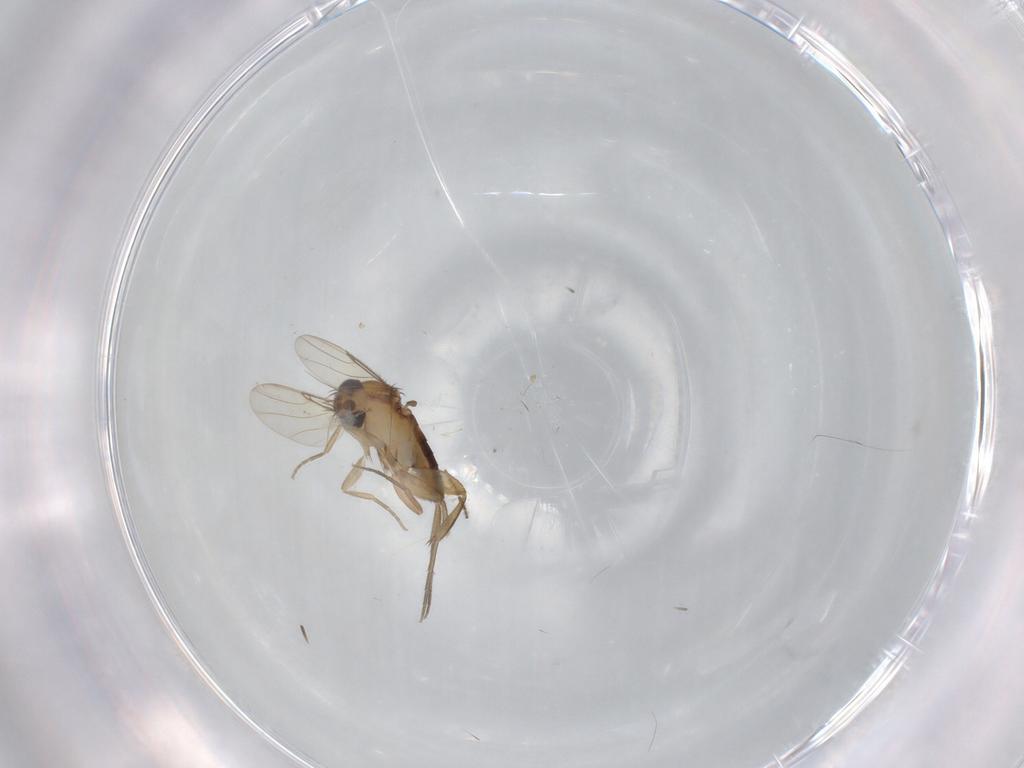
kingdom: Animalia
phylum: Arthropoda
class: Insecta
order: Diptera
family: Phoridae
